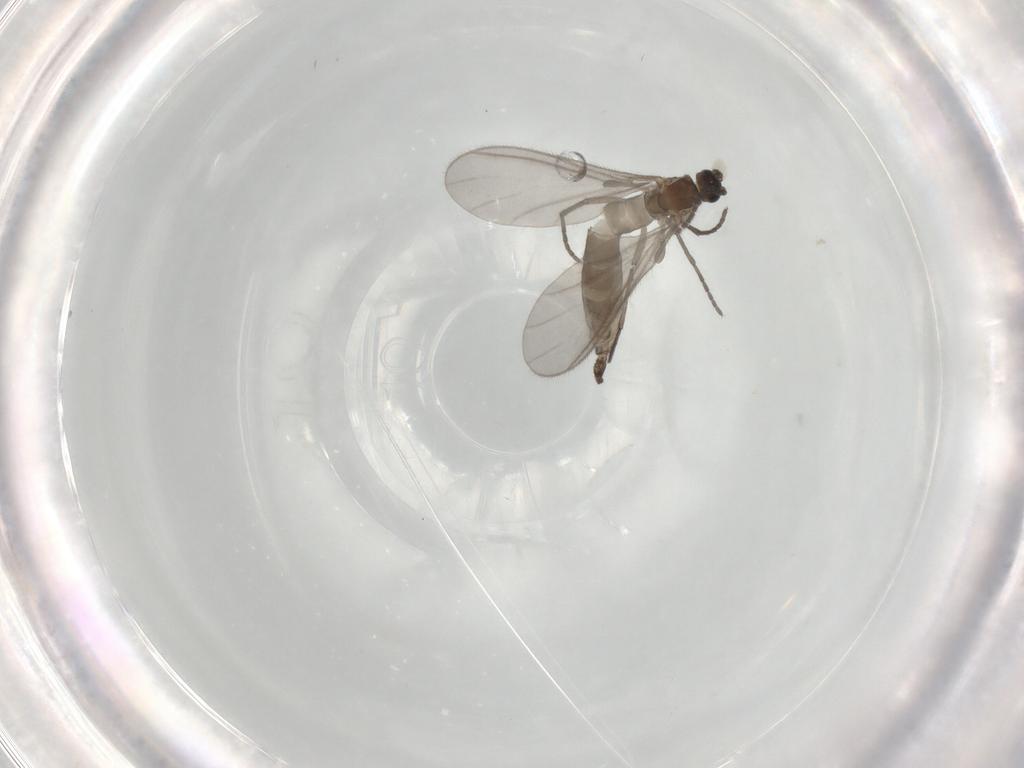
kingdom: Animalia
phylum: Arthropoda
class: Insecta
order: Diptera
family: Sciaridae
